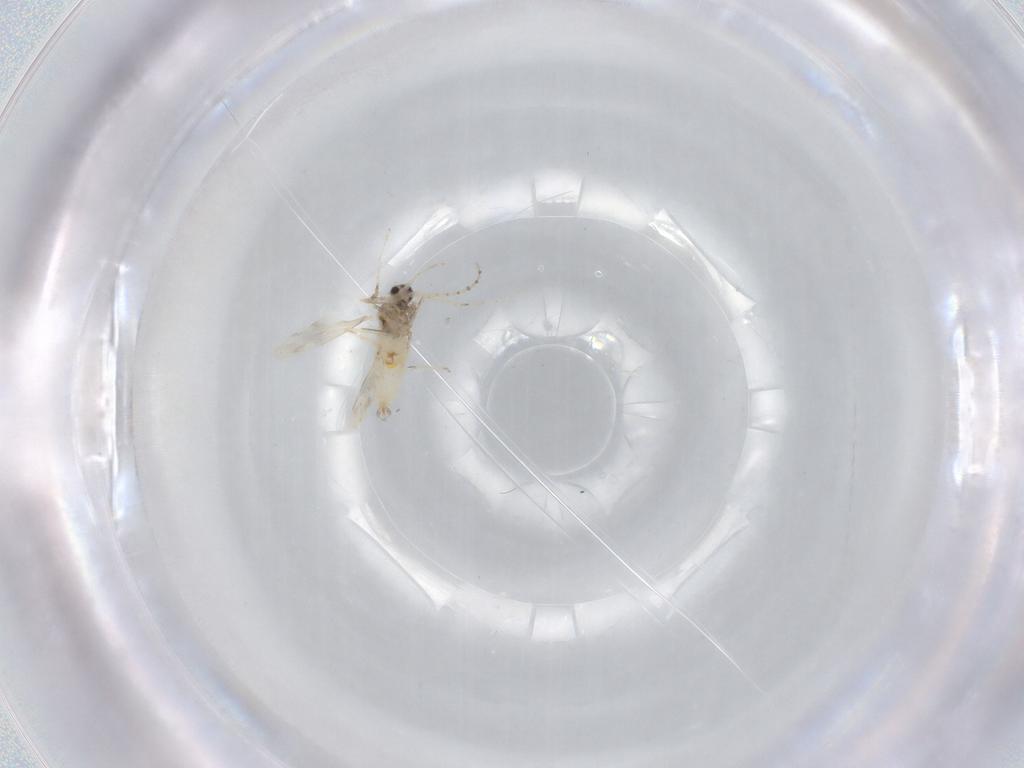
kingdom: Animalia
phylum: Arthropoda
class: Insecta
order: Diptera
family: Cecidomyiidae
